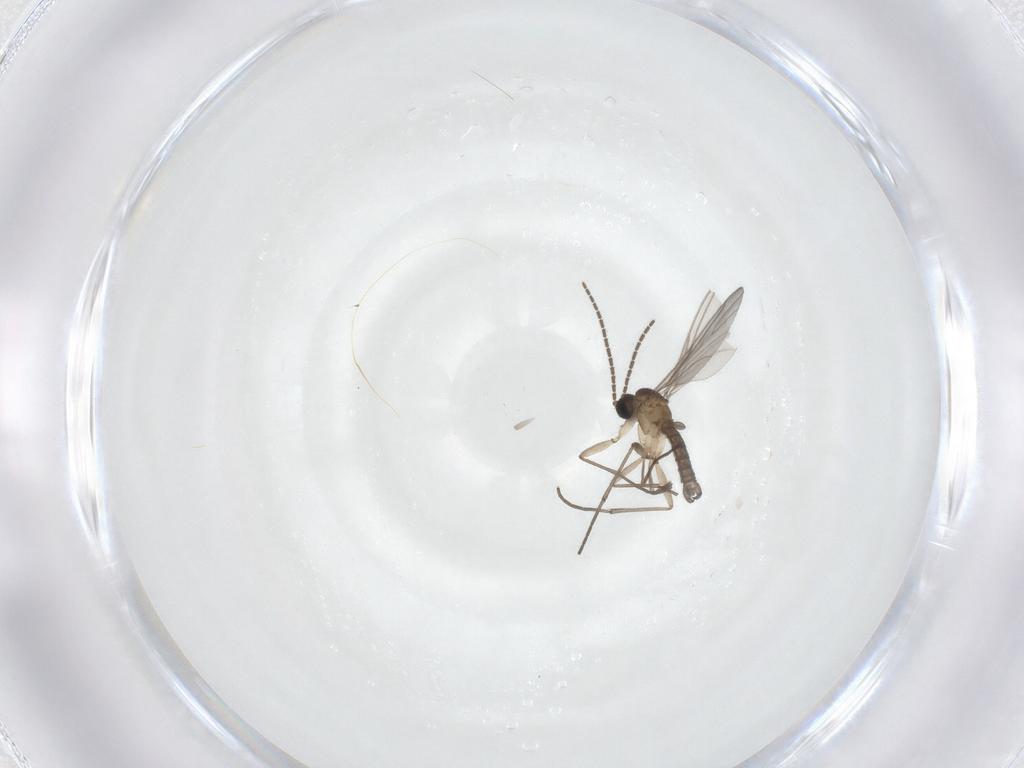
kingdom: Animalia
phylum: Arthropoda
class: Insecta
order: Diptera
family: Sciaridae
